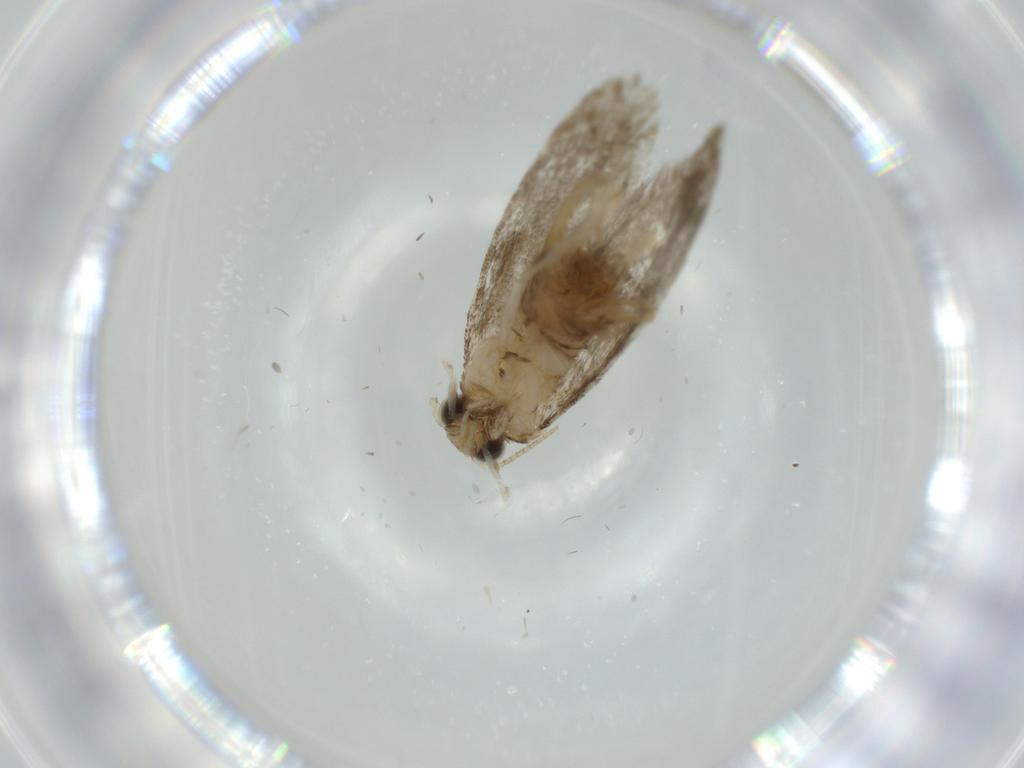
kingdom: Animalia
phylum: Arthropoda
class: Insecta
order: Lepidoptera
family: Tineidae
